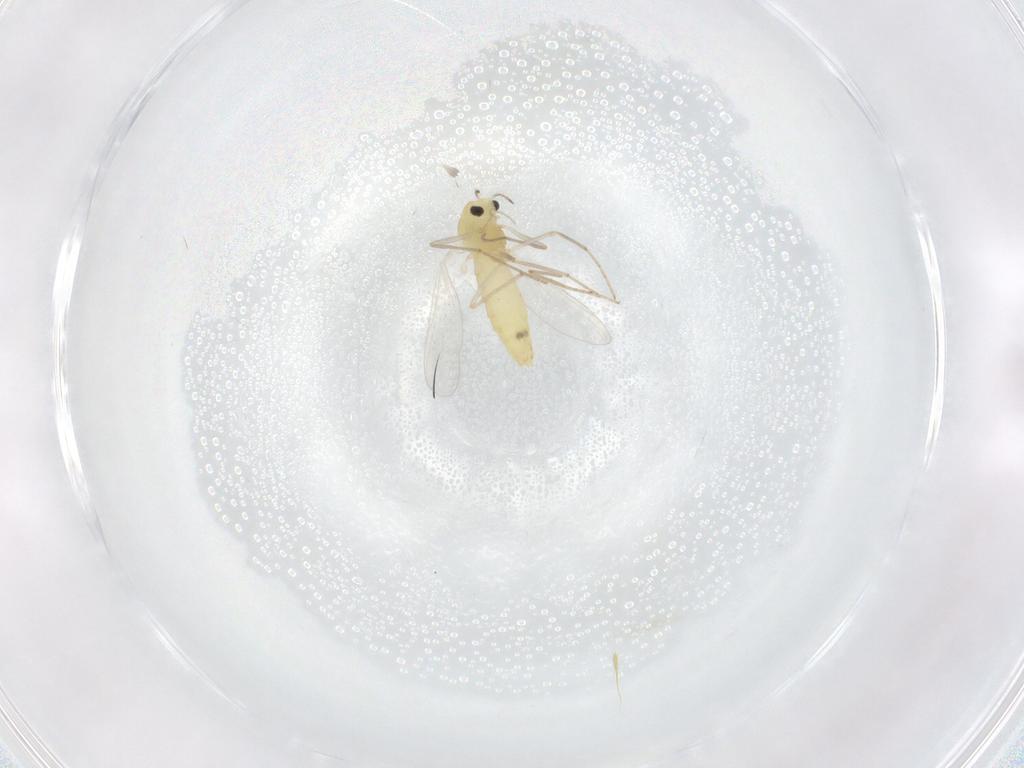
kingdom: Animalia
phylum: Arthropoda
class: Insecta
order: Diptera
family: Chironomidae
